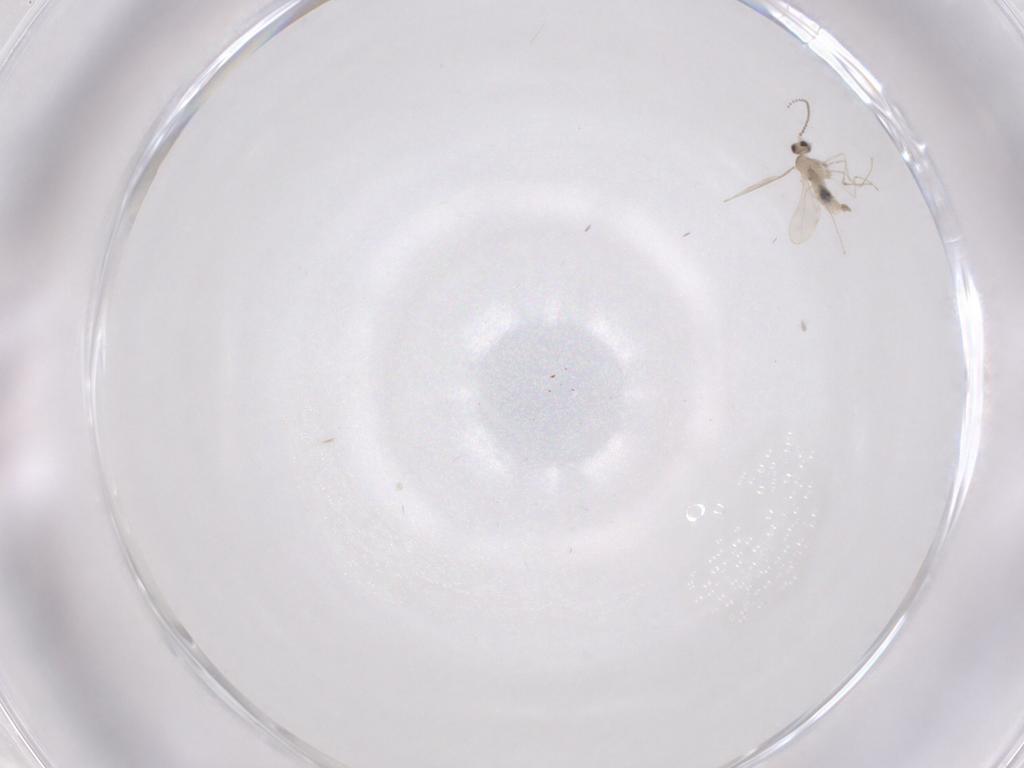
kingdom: Animalia
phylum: Arthropoda
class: Insecta
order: Diptera
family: Cecidomyiidae
